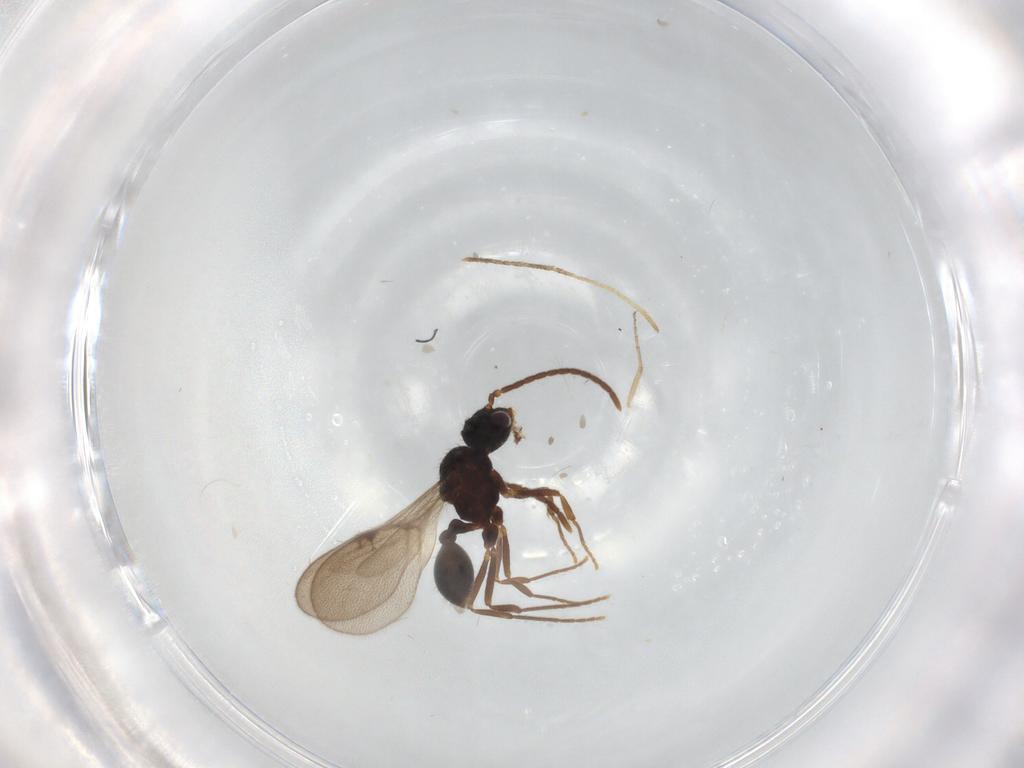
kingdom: Animalia
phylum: Arthropoda
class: Insecta
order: Hymenoptera
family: Formicidae
